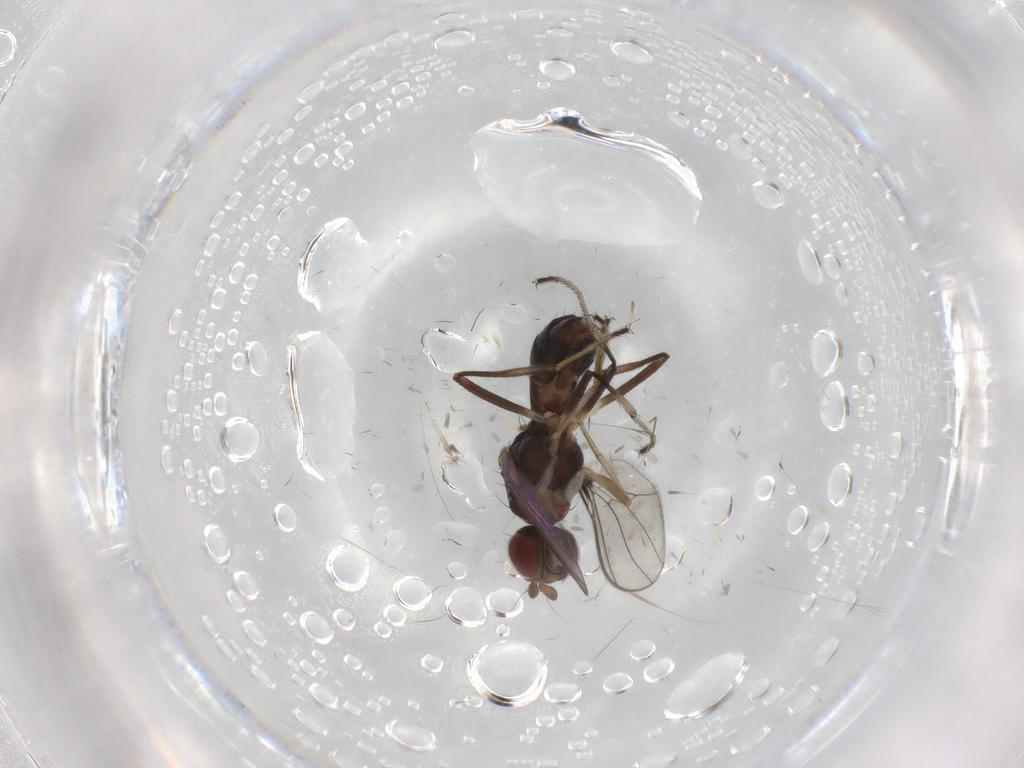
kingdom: Animalia
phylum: Arthropoda
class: Insecta
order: Diptera
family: Sepsidae
